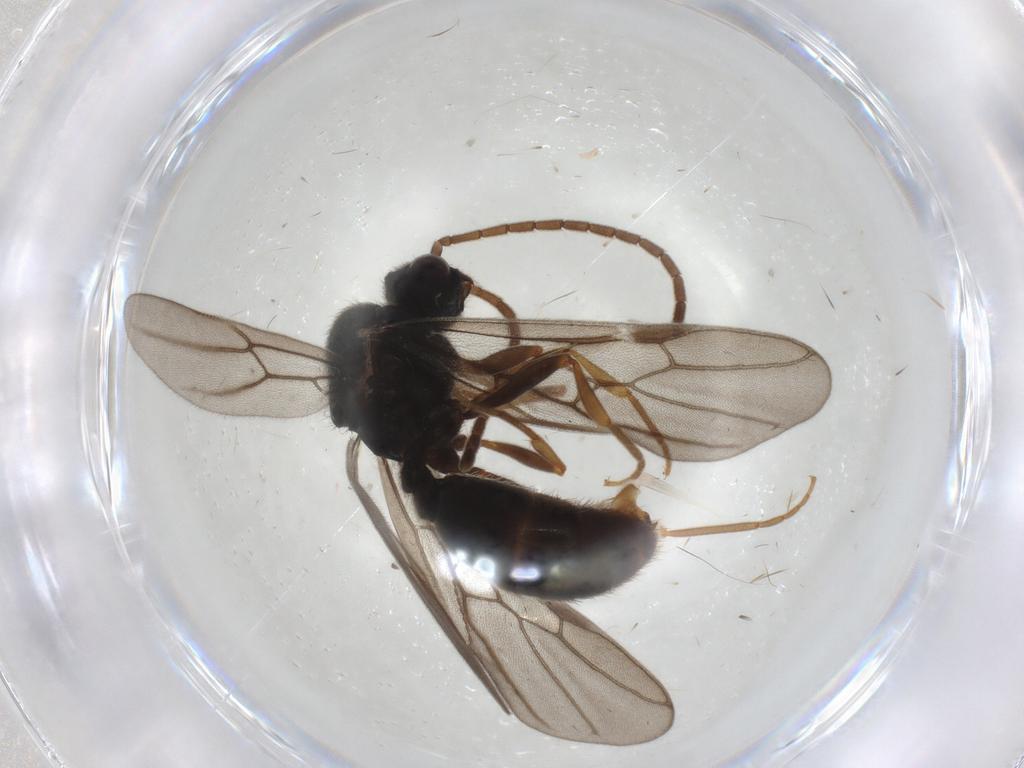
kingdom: Animalia
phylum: Arthropoda
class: Insecta
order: Hymenoptera
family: Formicidae
